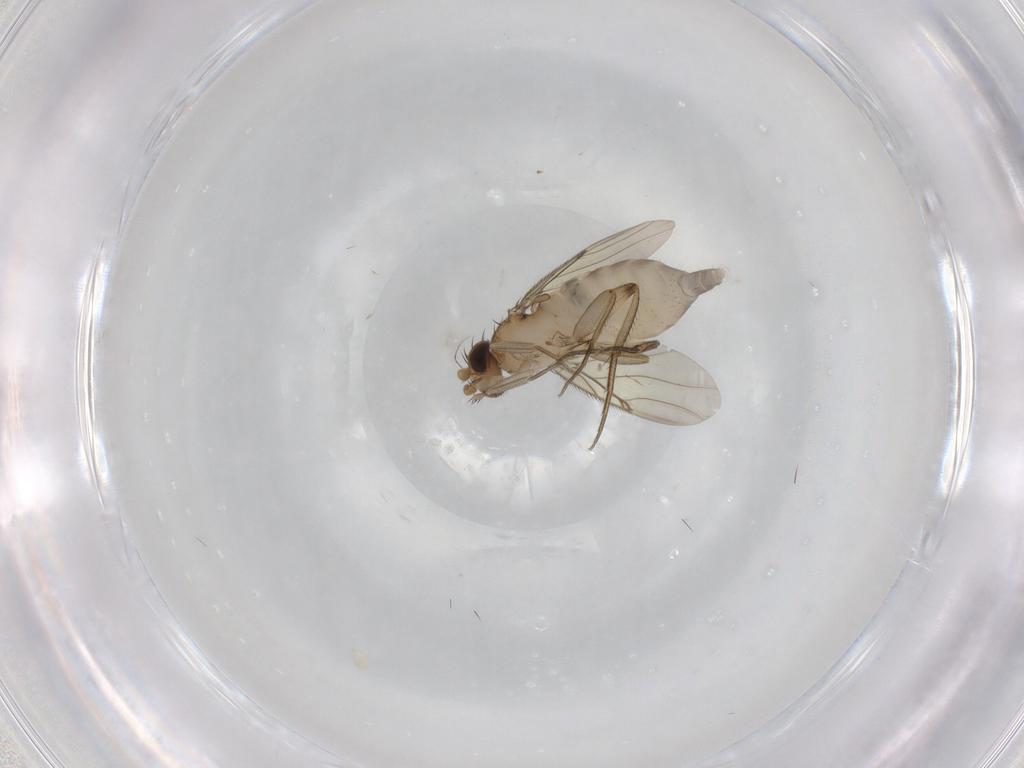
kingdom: Animalia
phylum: Arthropoda
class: Insecta
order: Diptera
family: Phoridae
